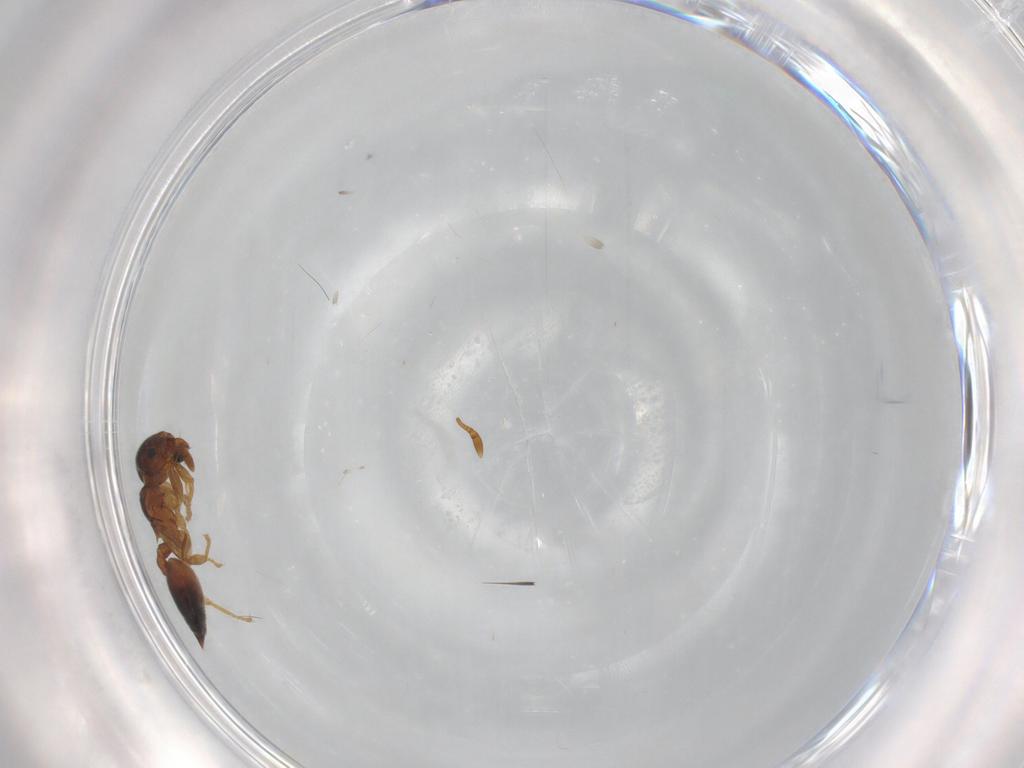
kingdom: Animalia
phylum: Arthropoda
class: Insecta
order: Hymenoptera
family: Formicidae
